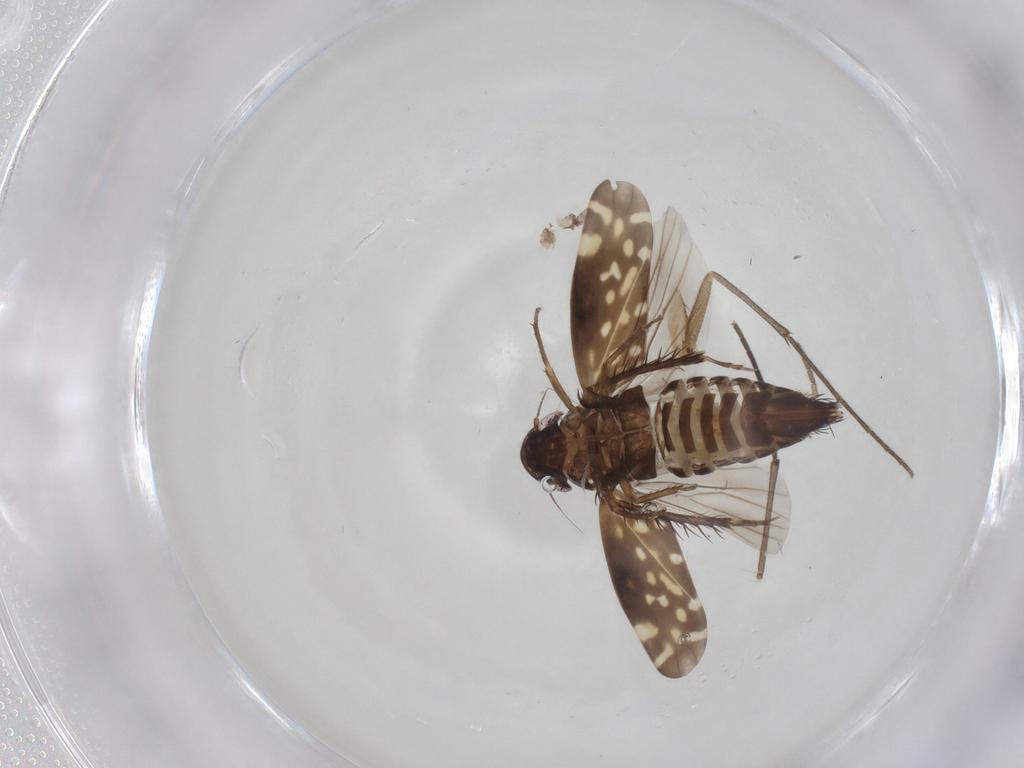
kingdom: Animalia
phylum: Arthropoda
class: Insecta
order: Hemiptera
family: Cicadellidae
